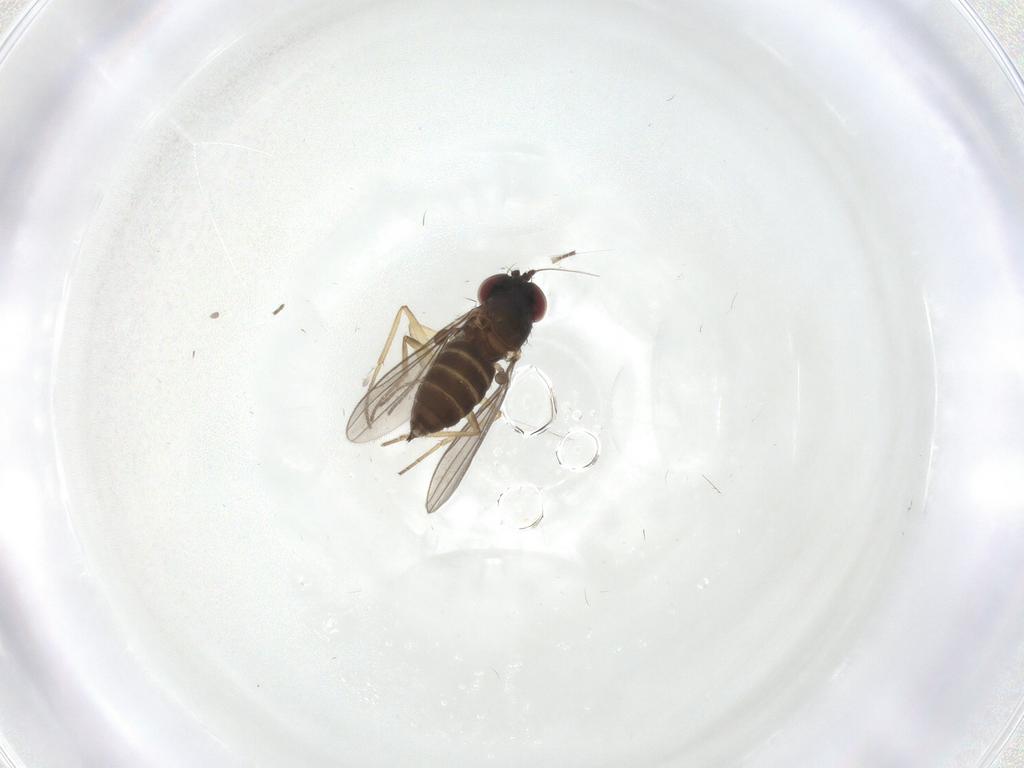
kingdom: Animalia
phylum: Arthropoda
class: Insecta
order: Diptera
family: Dolichopodidae
